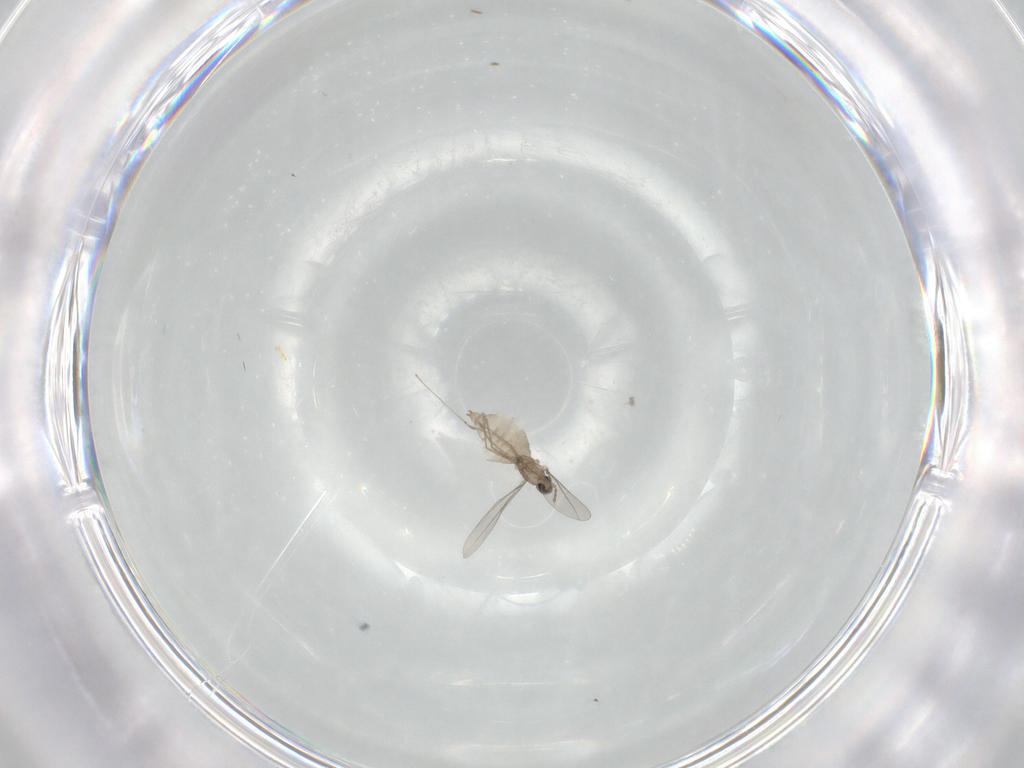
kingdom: Animalia
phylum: Arthropoda
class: Insecta
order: Diptera
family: Cecidomyiidae
